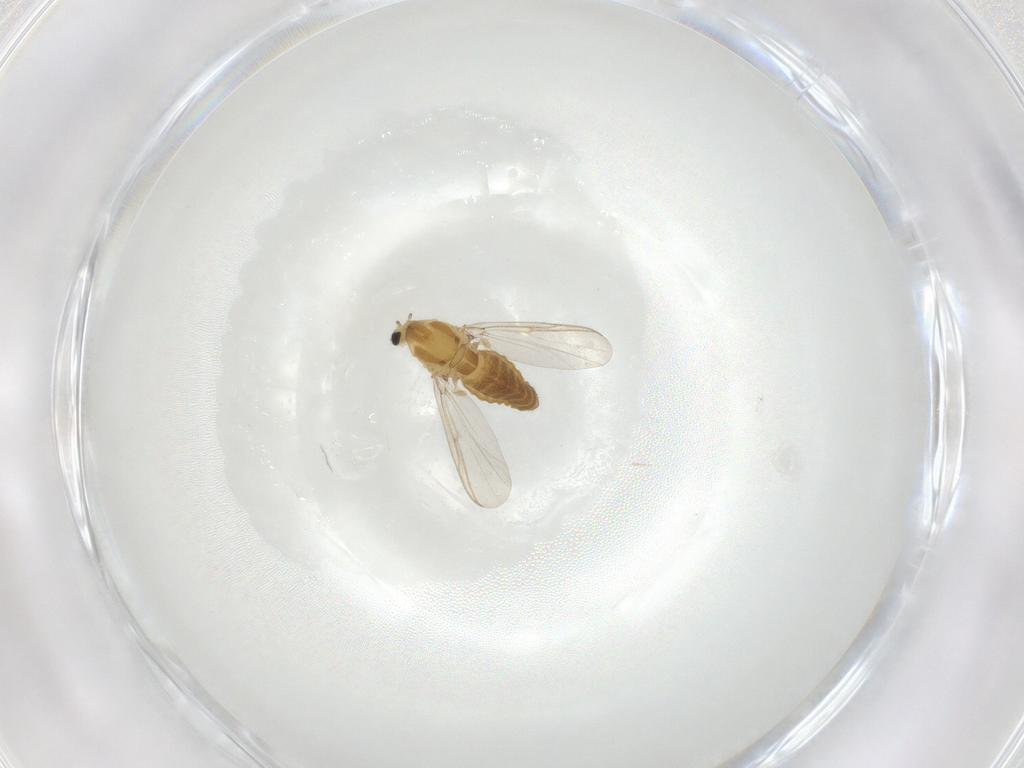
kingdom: Animalia
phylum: Arthropoda
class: Insecta
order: Diptera
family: Chironomidae
